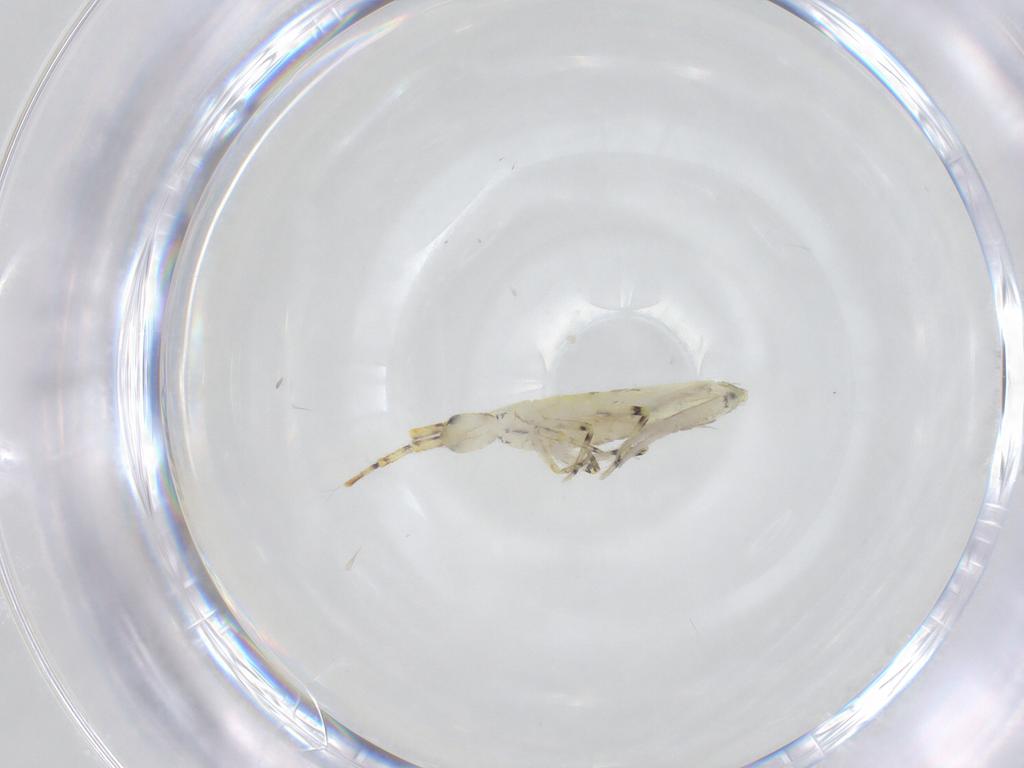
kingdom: Animalia
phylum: Arthropoda
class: Collembola
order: Entomobryomorpha
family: Entomobryidae
